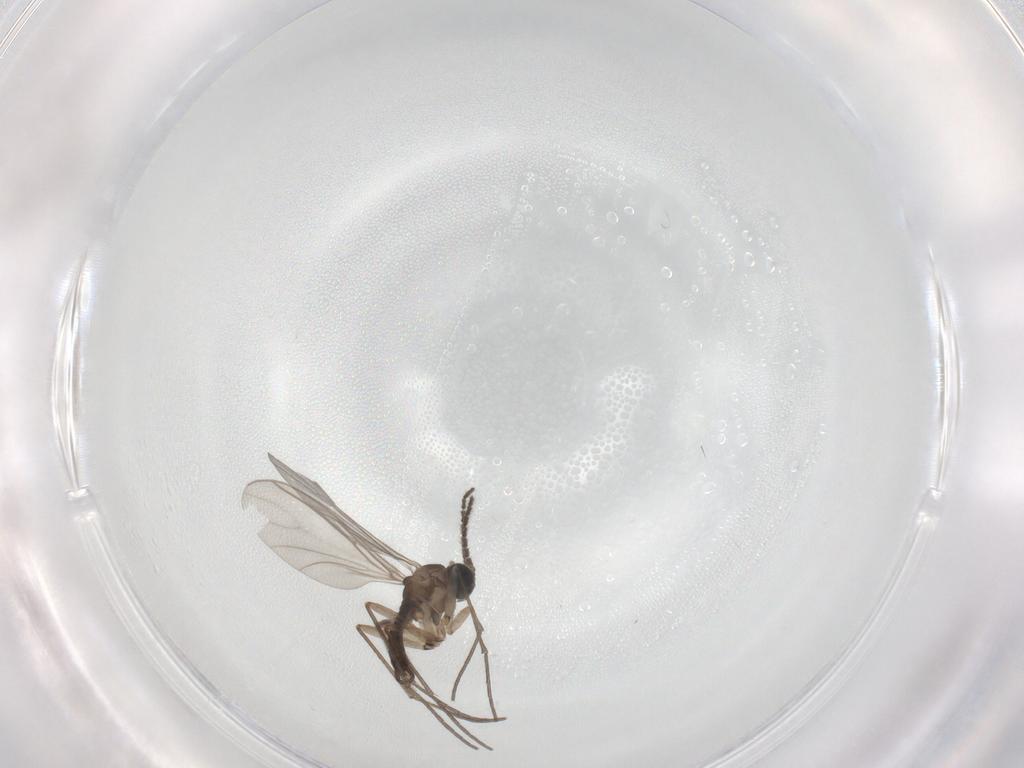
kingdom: Animalia
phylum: Arthropoda
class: Insecta
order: Diptera
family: Sciaridae
